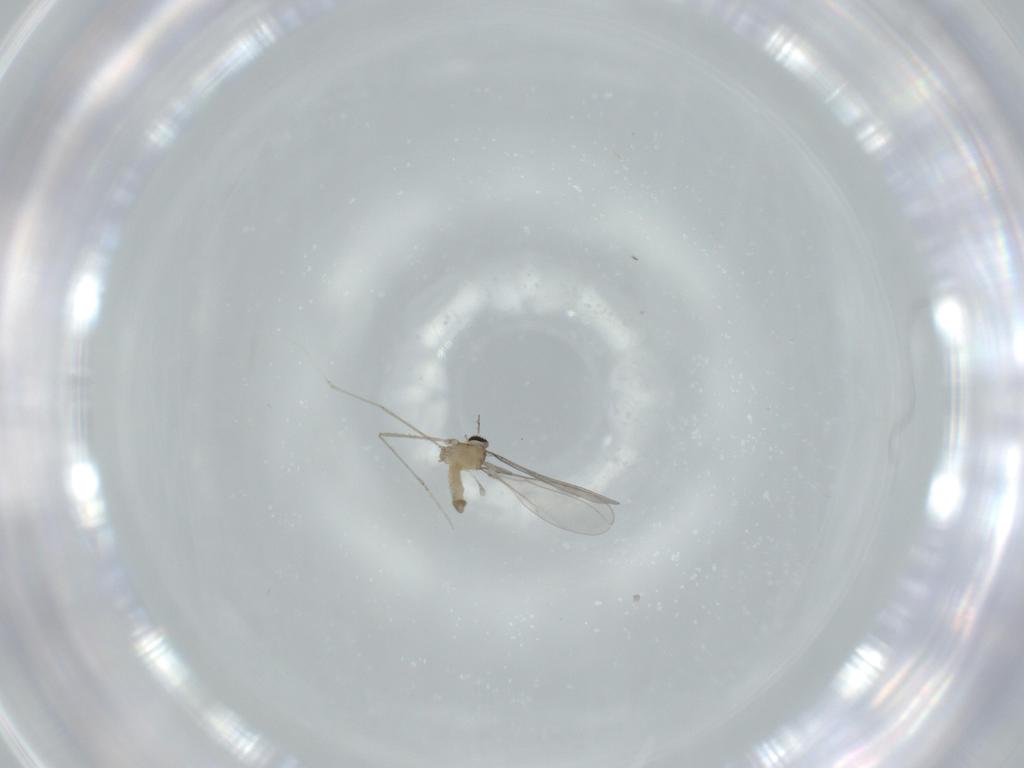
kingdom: Animalia
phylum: Arthropoda
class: Insecta
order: Diptera
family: Cecidomyiidae
